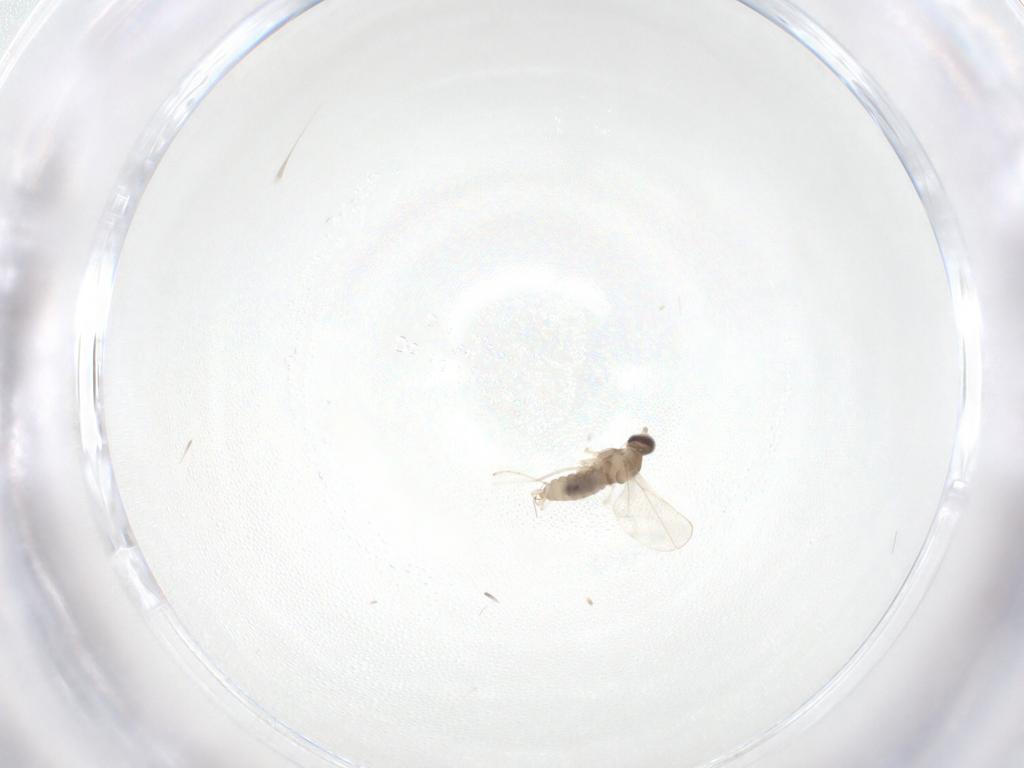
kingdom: Animalia
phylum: Arthropoda
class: Insecta
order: Diptera
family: Cecidomyiidae
